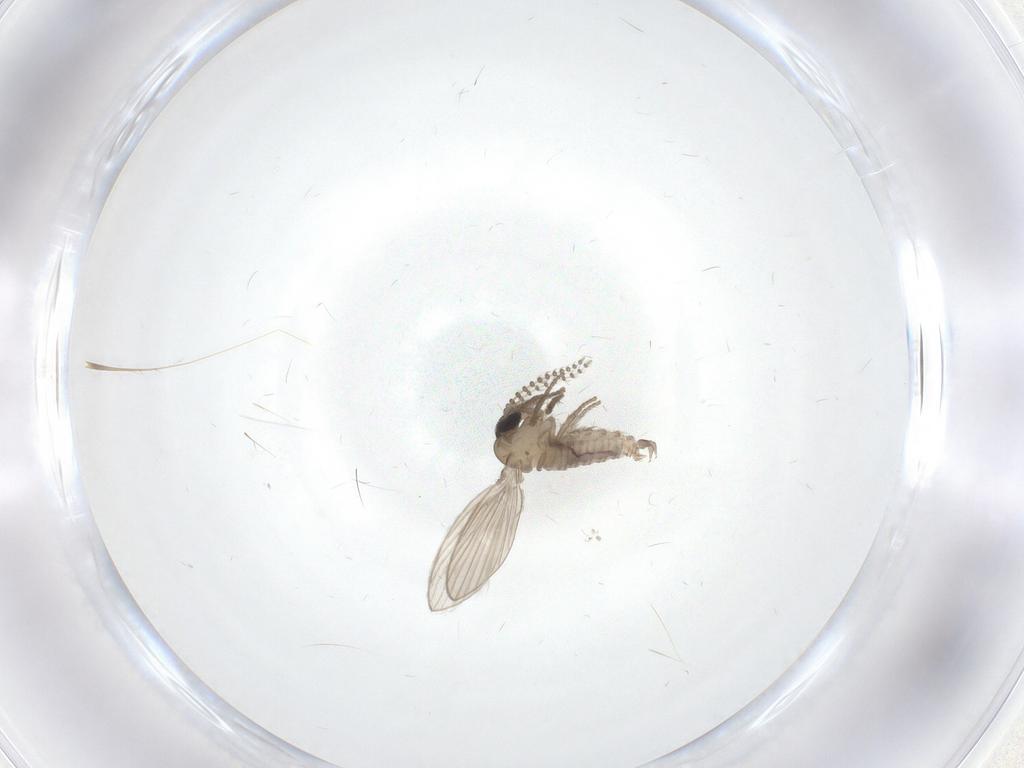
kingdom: Animalia
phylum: Arthropoda
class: Insecta
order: Diptera
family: Psychodidae
